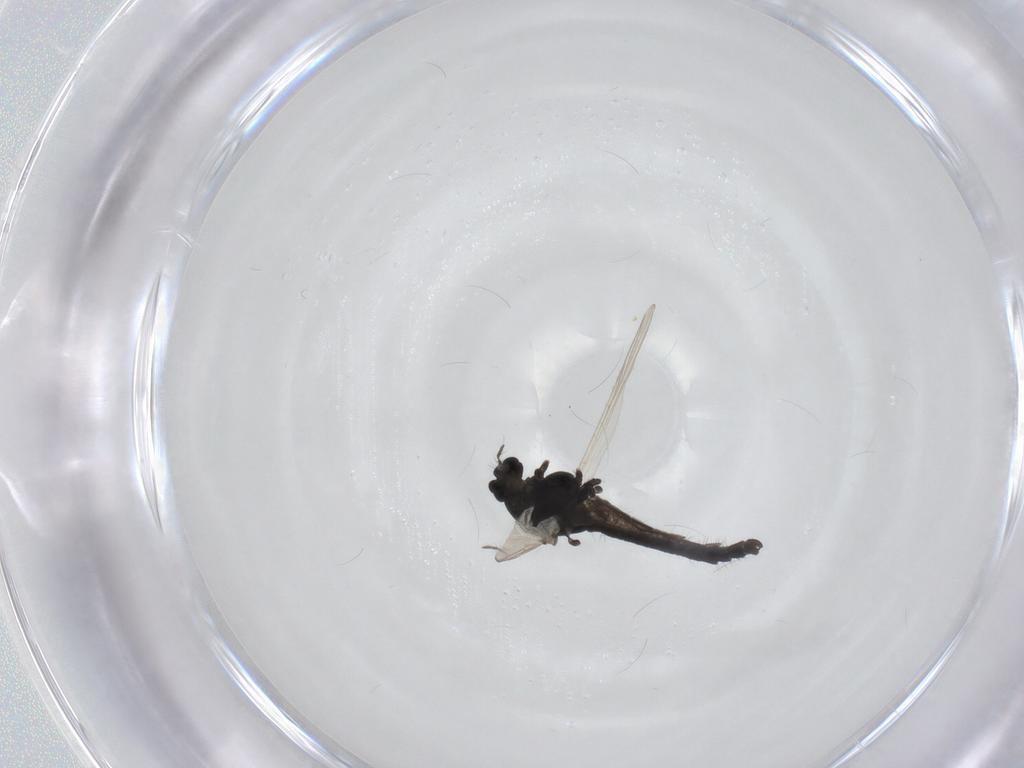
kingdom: Animalia
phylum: Arthropoda
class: Insecta
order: Diptera
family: Chironomidae
